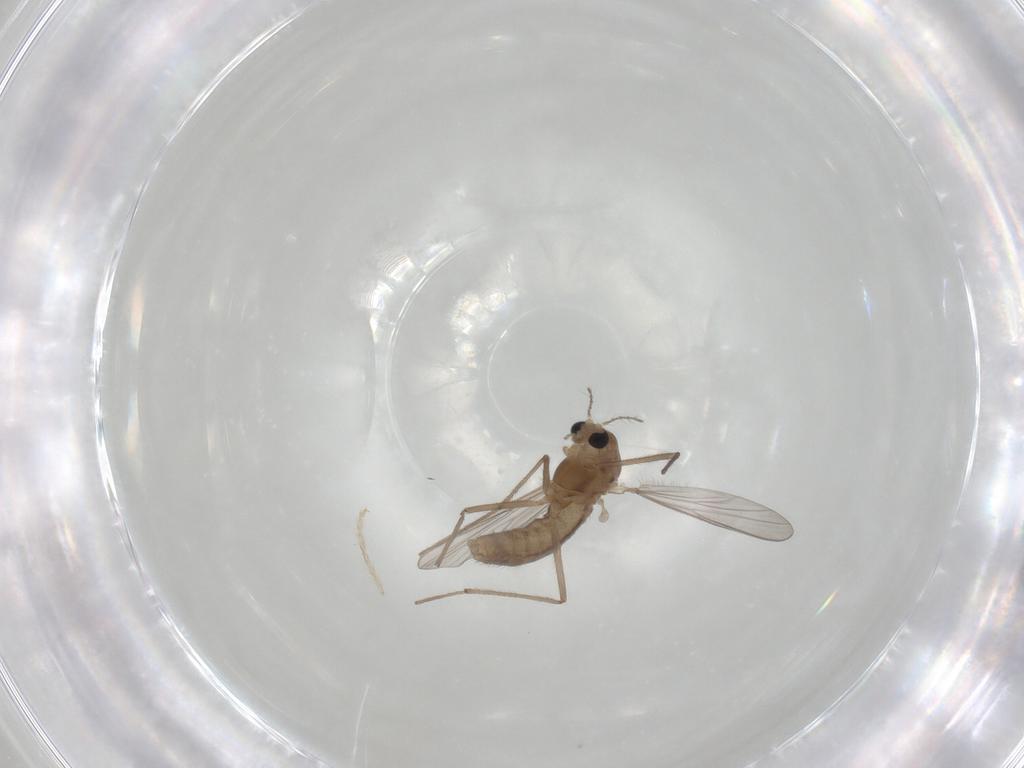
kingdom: Animalia
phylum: Arthropoda
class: Insecta
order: Diptera
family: Chironomidae
